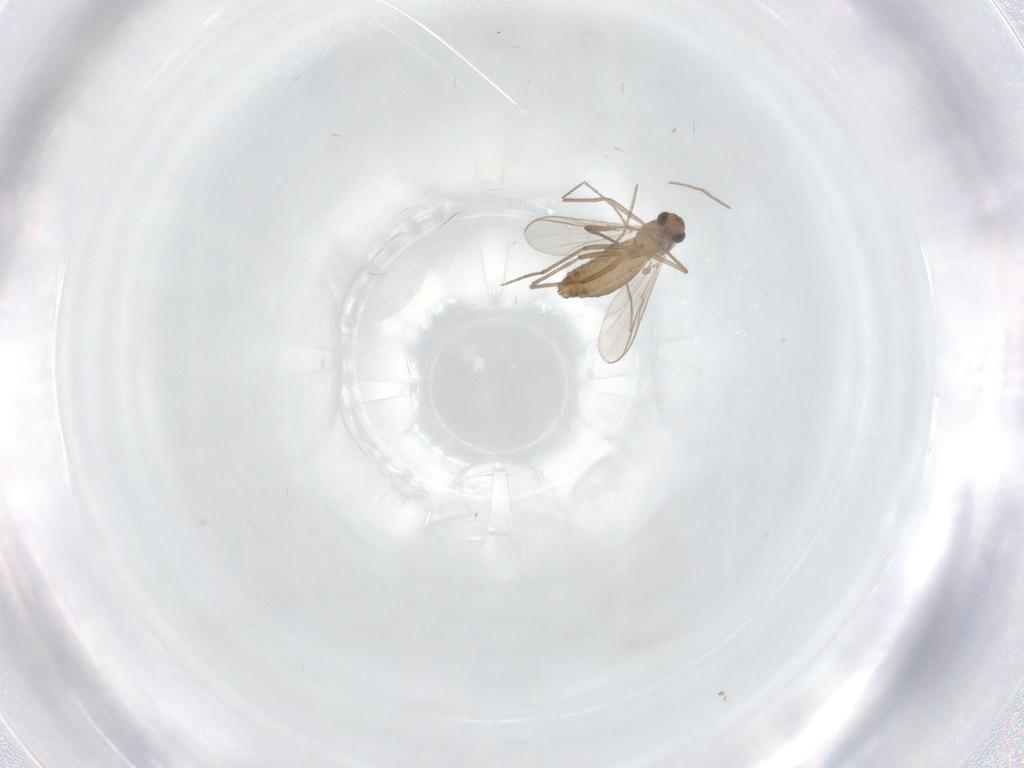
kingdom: Animalia
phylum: Arthropoda
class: Insecta
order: Diptera
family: Chironomidae
